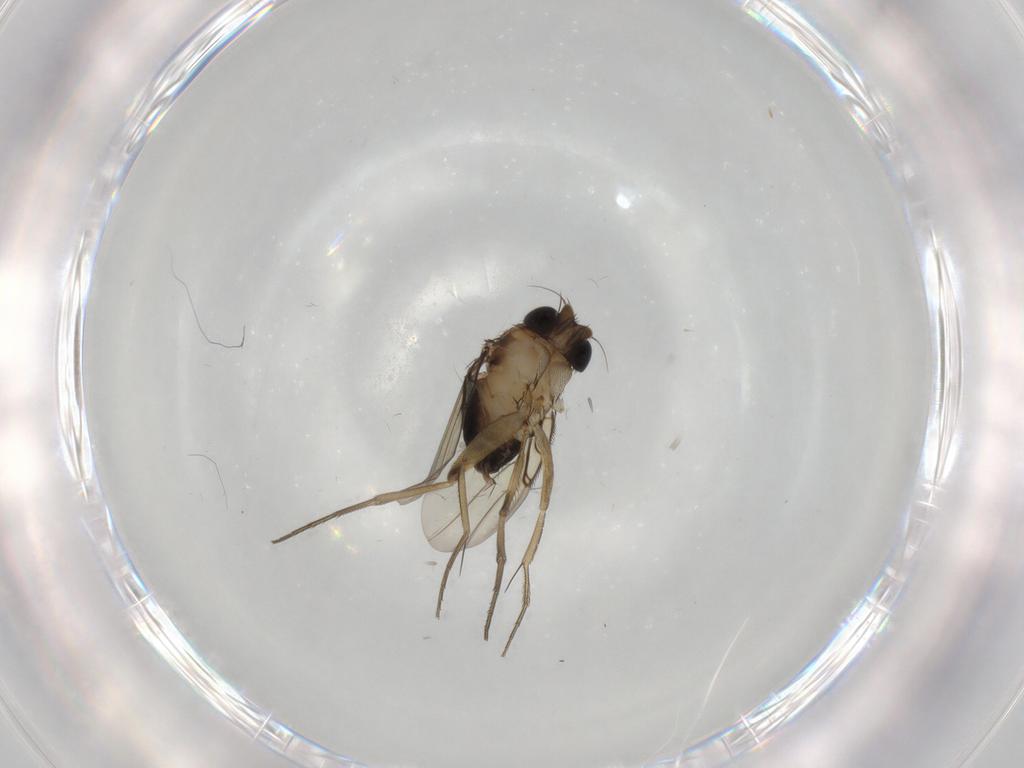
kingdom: Animalia
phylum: Arthropoda
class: Insecta
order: Diptera
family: Phoridae
